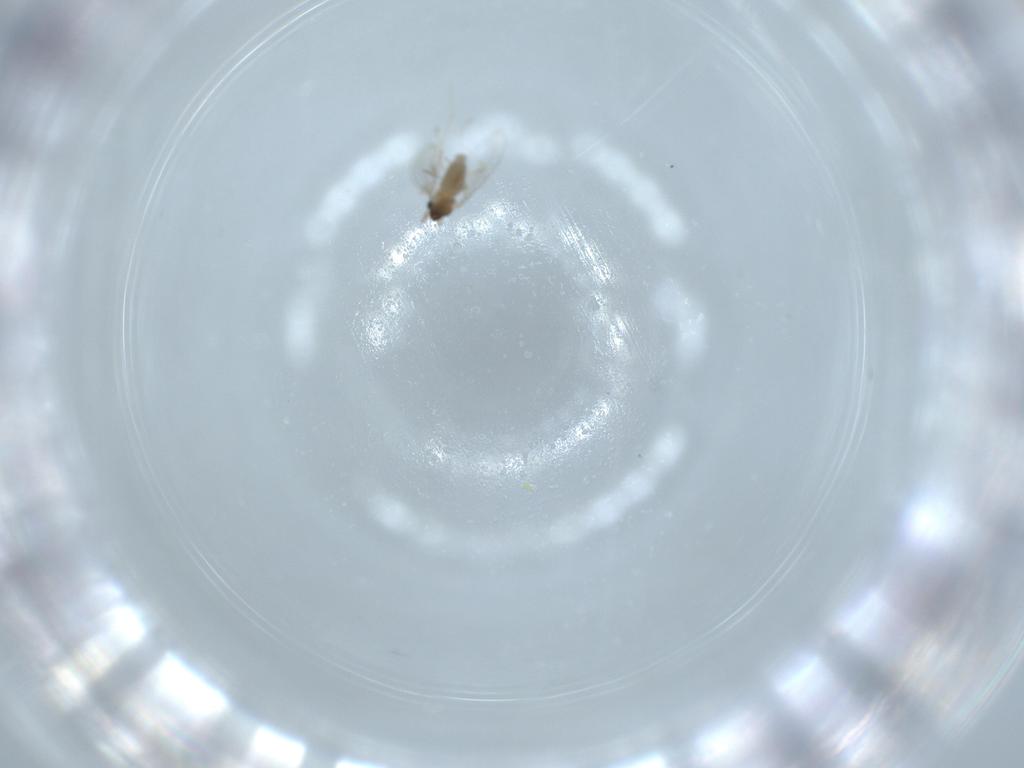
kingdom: Animalia
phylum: Arthropoda
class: Insecta
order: Diptera
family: Cecidomyiidae
